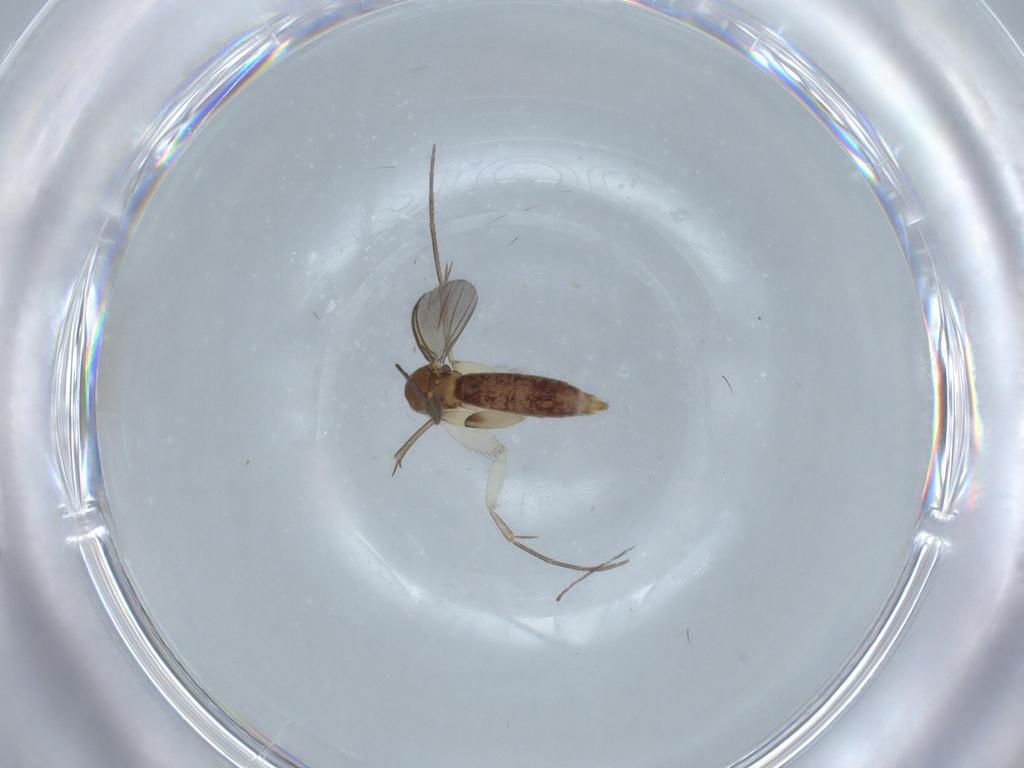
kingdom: Animalia
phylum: Arthropoda
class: Insecta
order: Diptera
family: Mycetophilidae
